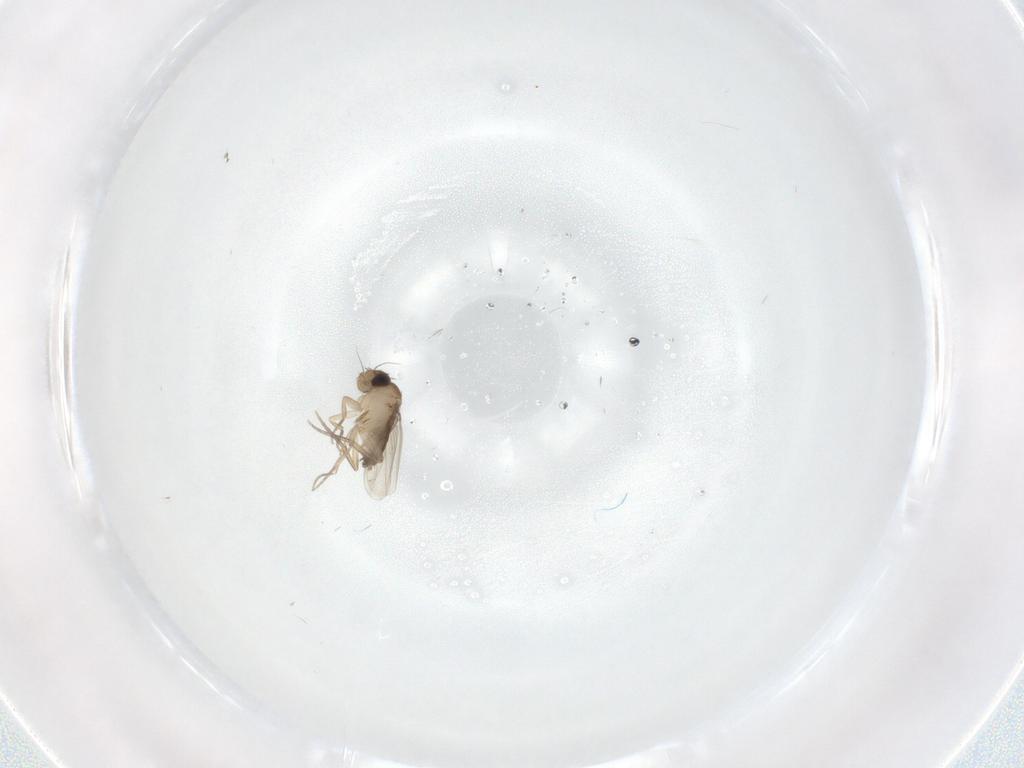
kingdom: Animalia
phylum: Arthropoda
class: Insecta
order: Diptera
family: Phoridae
